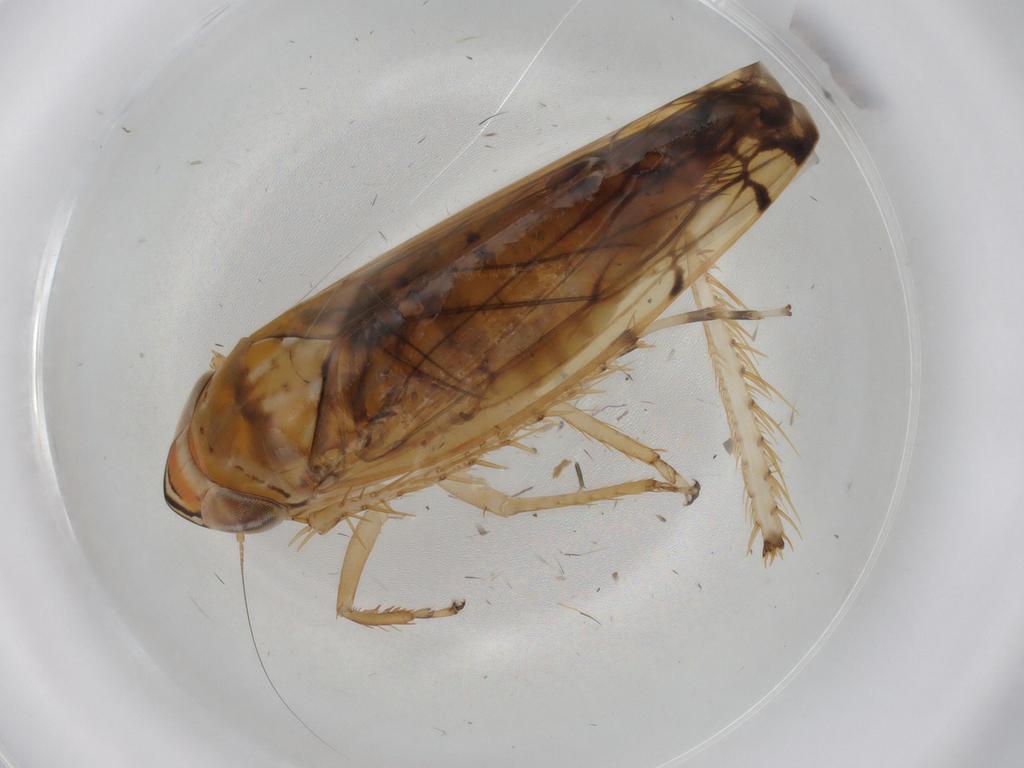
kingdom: Animalia
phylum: Arthropoda
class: Insecta
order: Hemiptera
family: Cicadellidae
